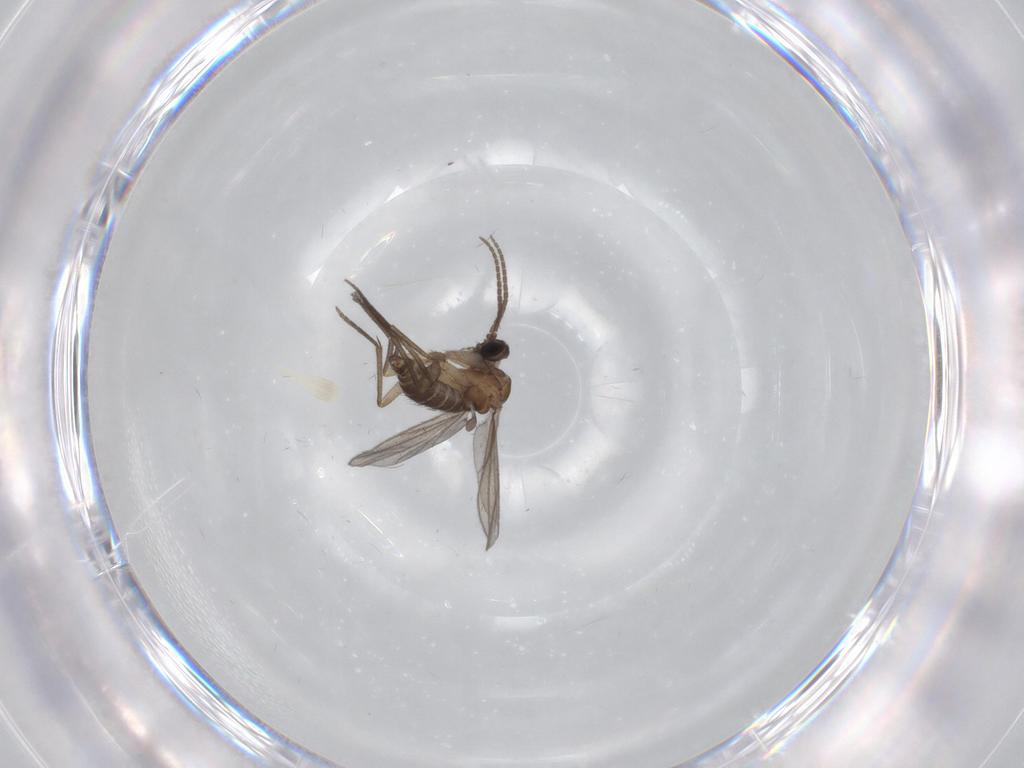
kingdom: Animalia
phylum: Arthropoda
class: Insecta
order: Diptera
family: Sciaridae
